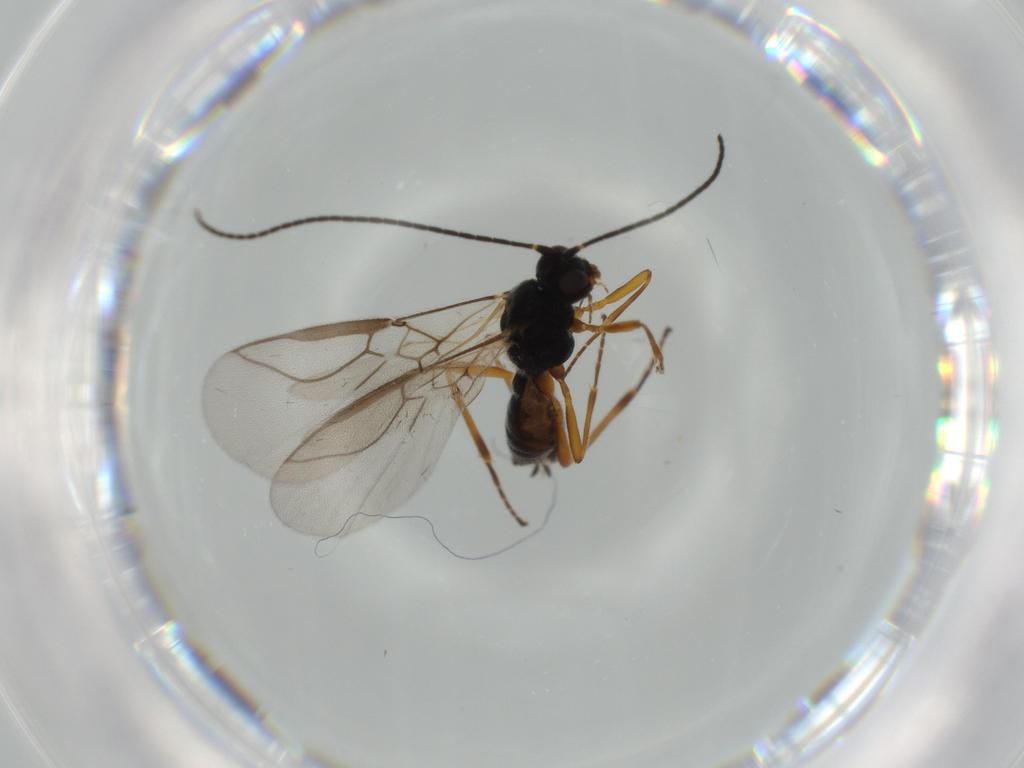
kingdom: Animalia
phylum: Arthropoda
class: Insecta
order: Hymenoptera
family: Braconidae
